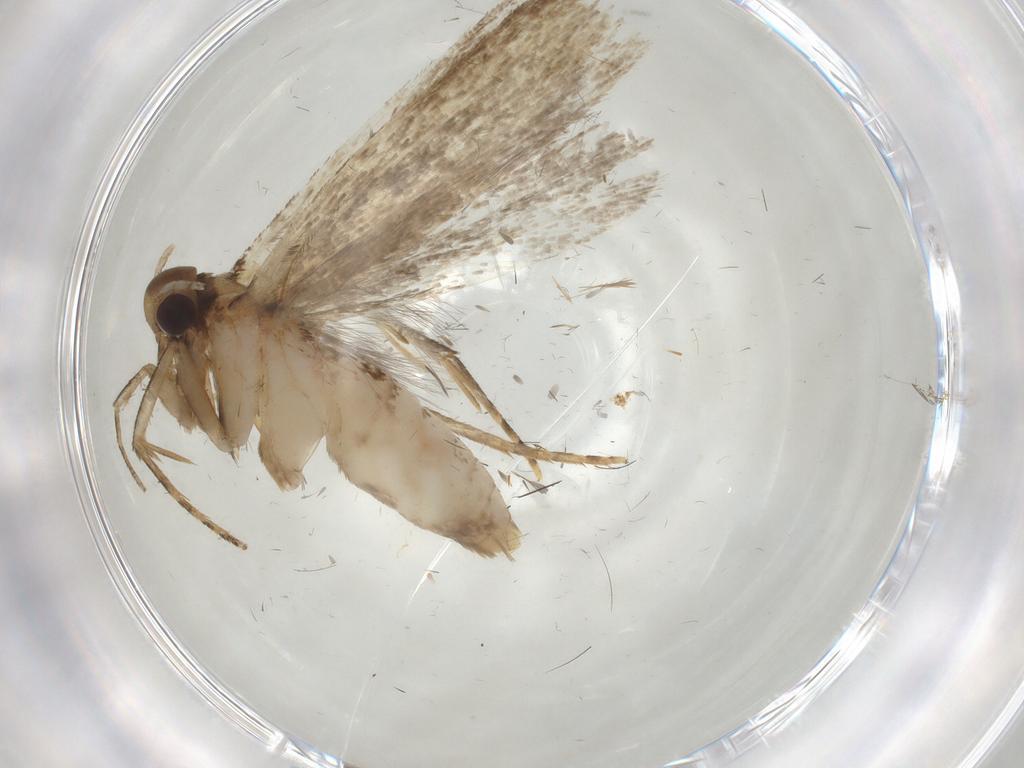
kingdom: Animalia
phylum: Arthropoda
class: Insecta
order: Lepidoptera
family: Gelechiidae
